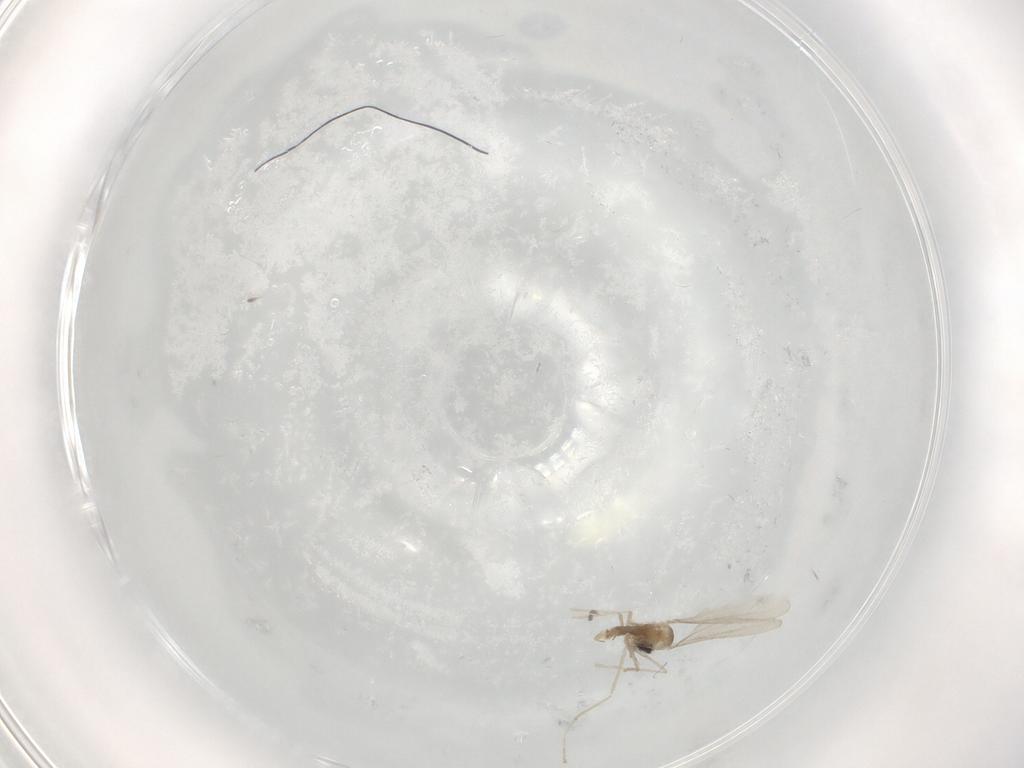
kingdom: Animalia
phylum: Arthropoda
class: Insecta
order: Diptera
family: Phoridae
